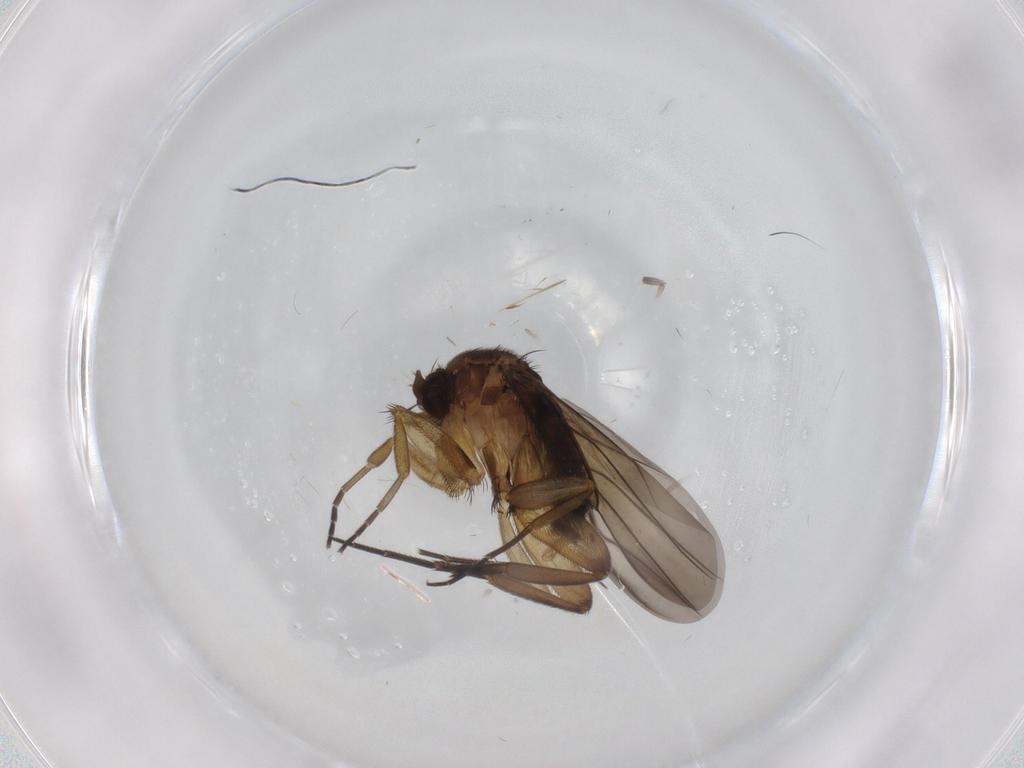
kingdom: Animalia
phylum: Arthropoda
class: Insecta
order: Diptera
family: Phoridae
